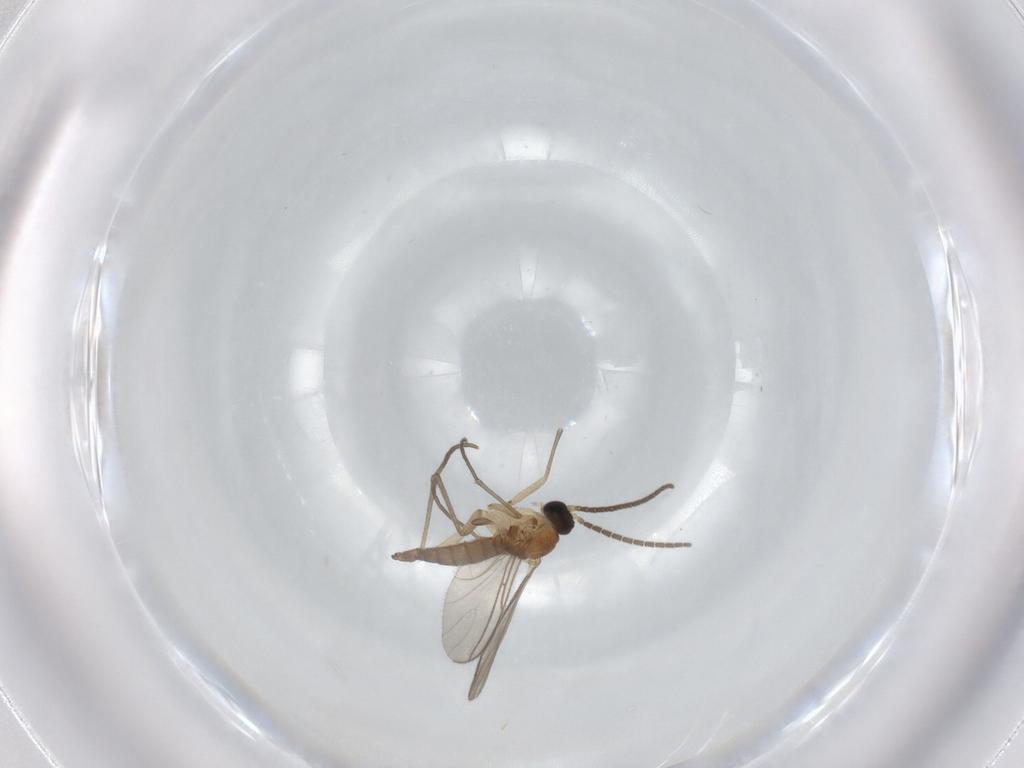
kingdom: Animalia
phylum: Arthropoda
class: Insecta
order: Diptera
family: Sciaridae
